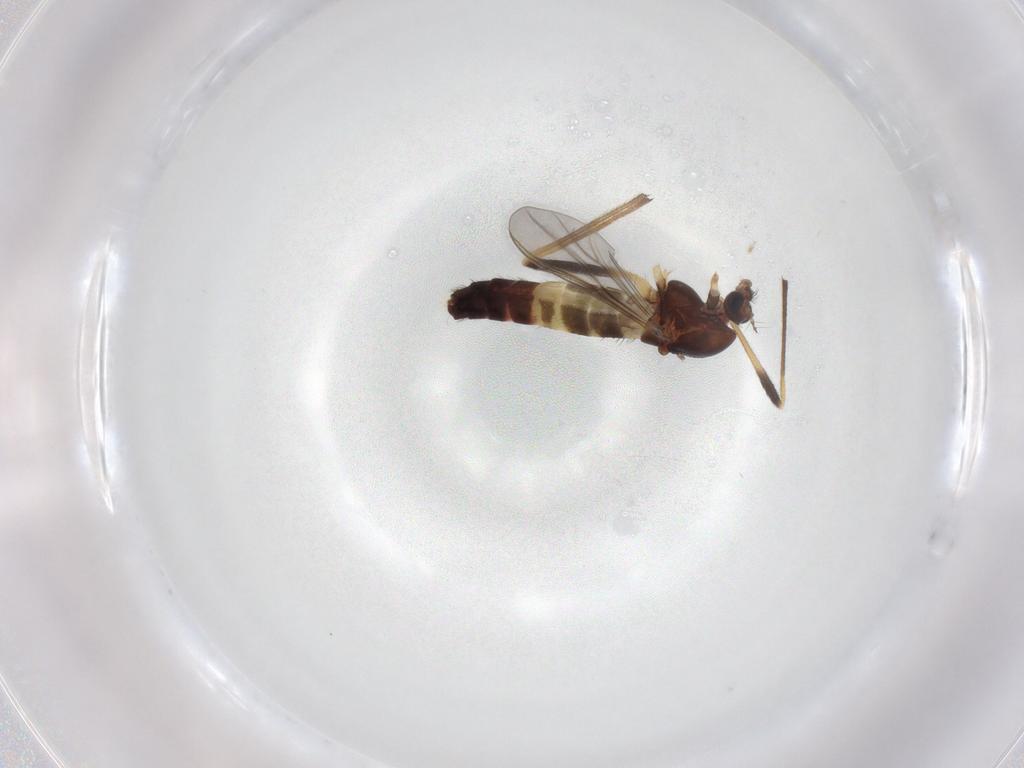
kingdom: Animalia
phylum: Arthropoda
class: Insecta
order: Diptera
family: Chironomidae
